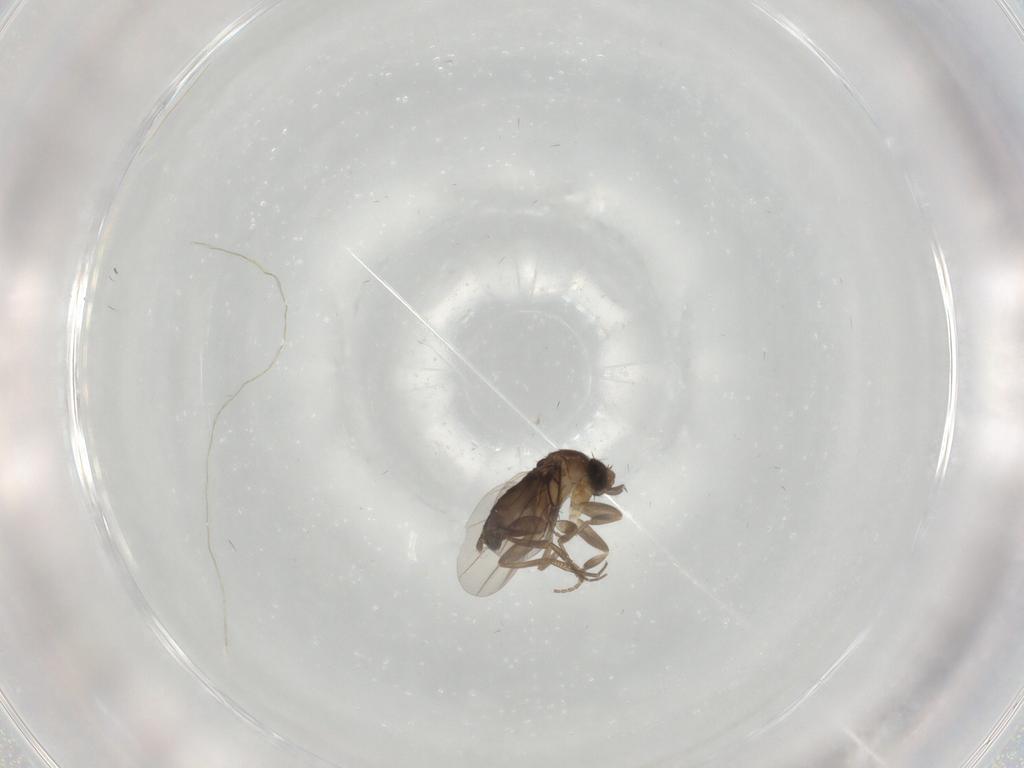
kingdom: Animalia
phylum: Arthropoda
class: Insecta
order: Diptera
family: Phoridae
